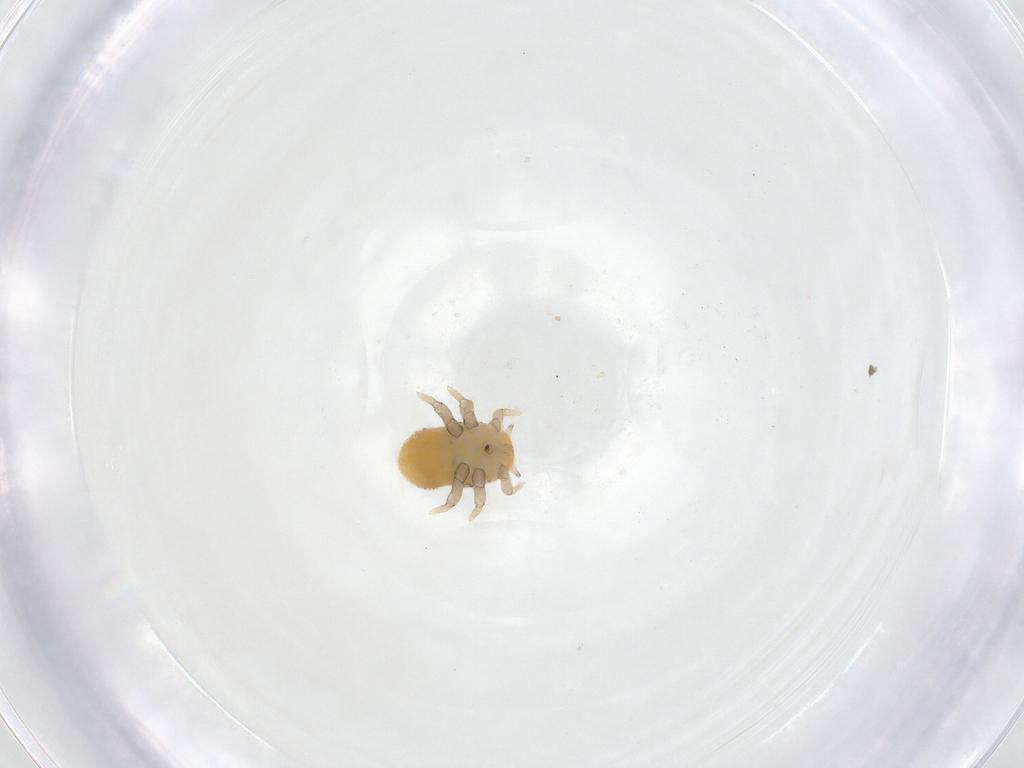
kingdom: Animalia
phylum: Arthropoda
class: Insecta
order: Hemiptera
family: Triozidae
